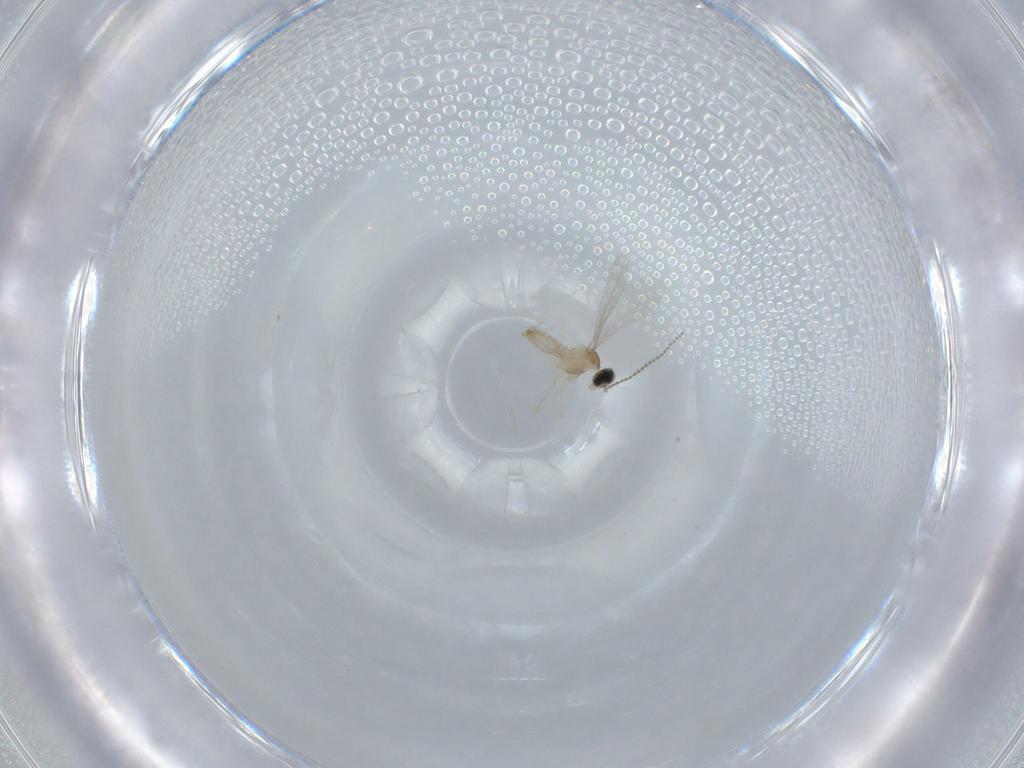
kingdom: Animalia
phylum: Arthropoda
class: Insecta
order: Diptera
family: Cecidomyiidae
